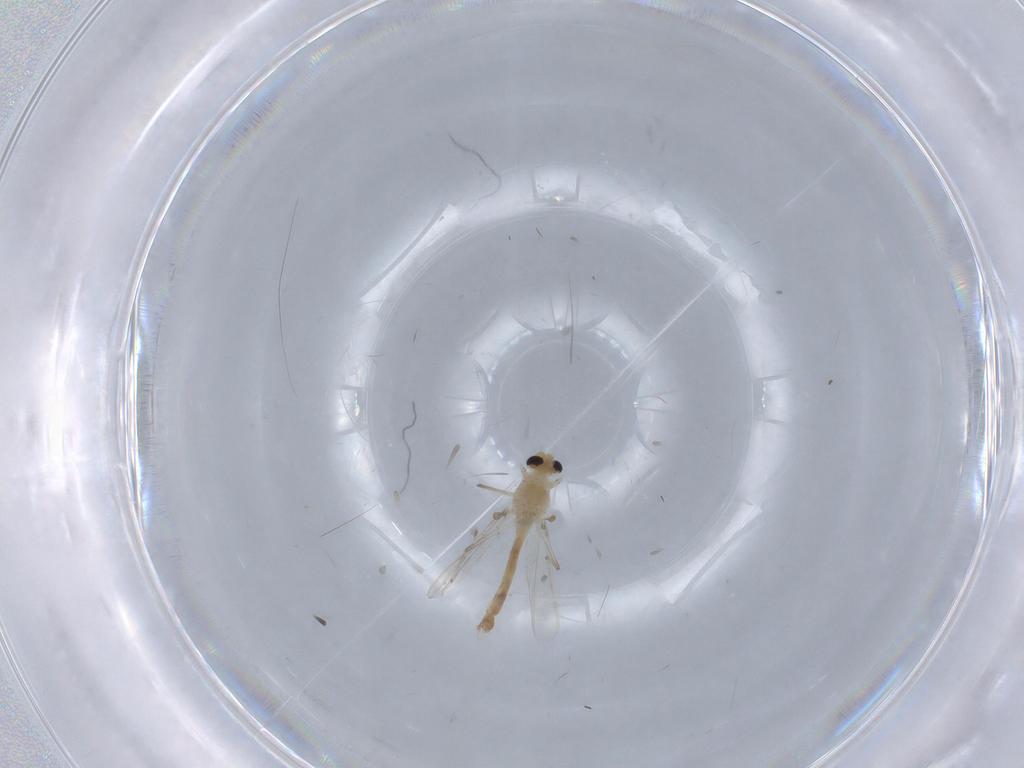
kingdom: Animalia
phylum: Arthropoda
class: Insecta
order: Diptera
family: Chironomidae
